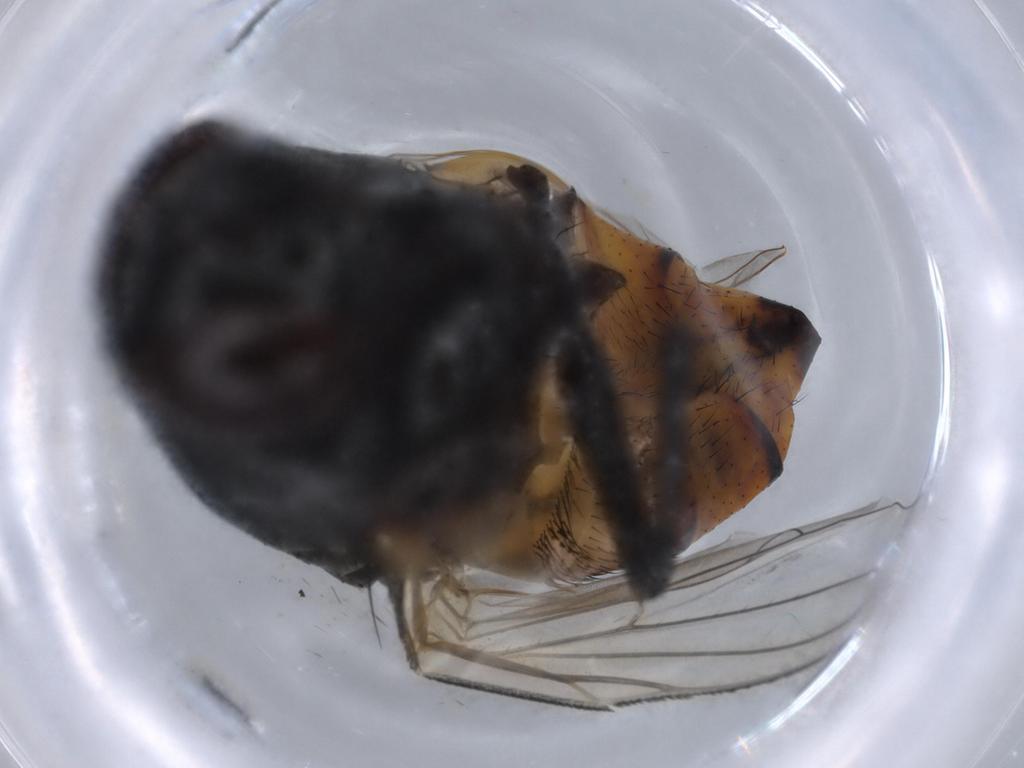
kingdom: Animalia
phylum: Arthropoda
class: Insecta
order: Diptera
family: Muscidae
